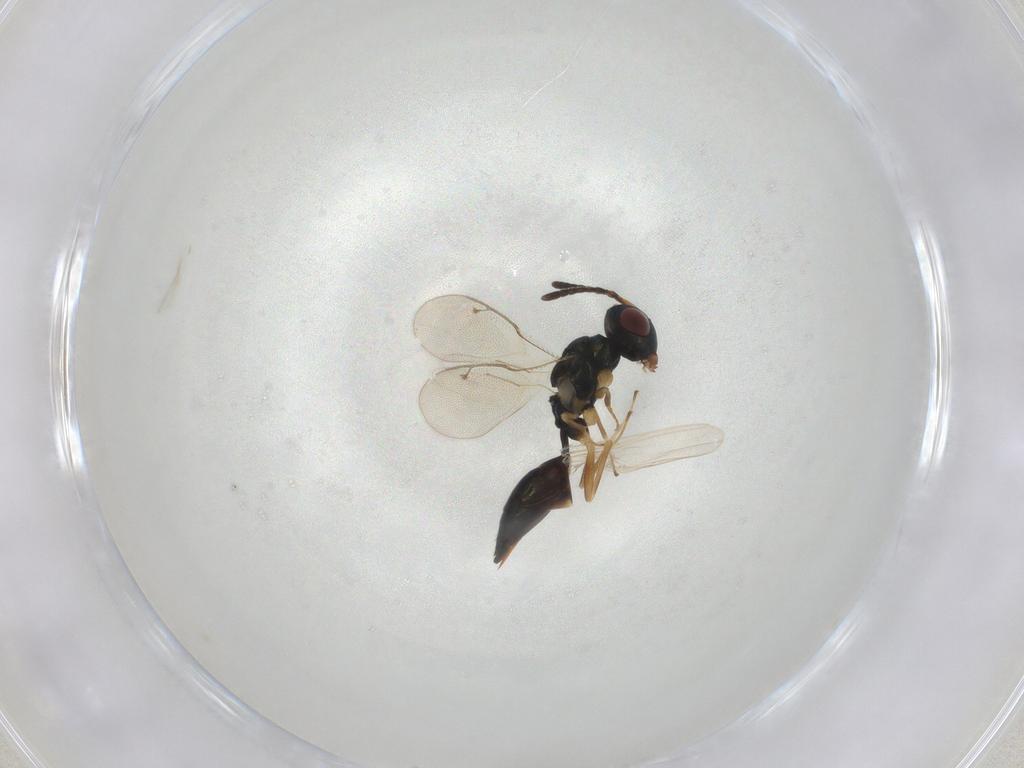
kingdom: Animalia
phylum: Arthropoda
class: Insecta
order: Hymenoptera
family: Pteromalidae
